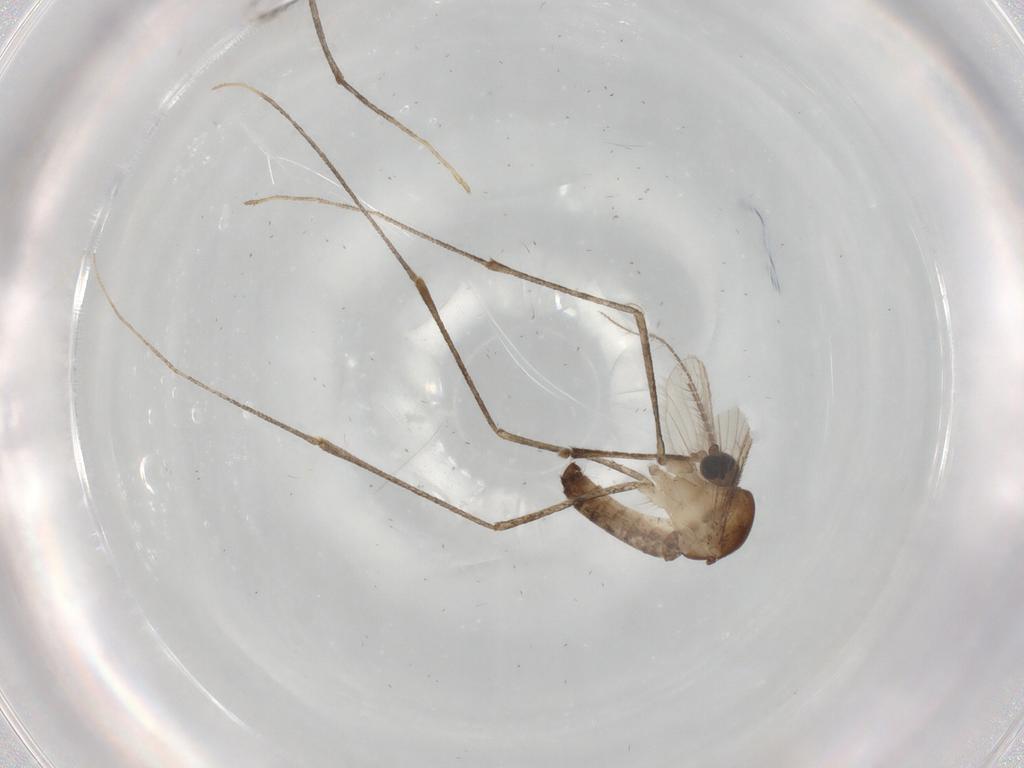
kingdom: Animalia
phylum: Arthropoda
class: Insecta
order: Diptera
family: Culicidae
